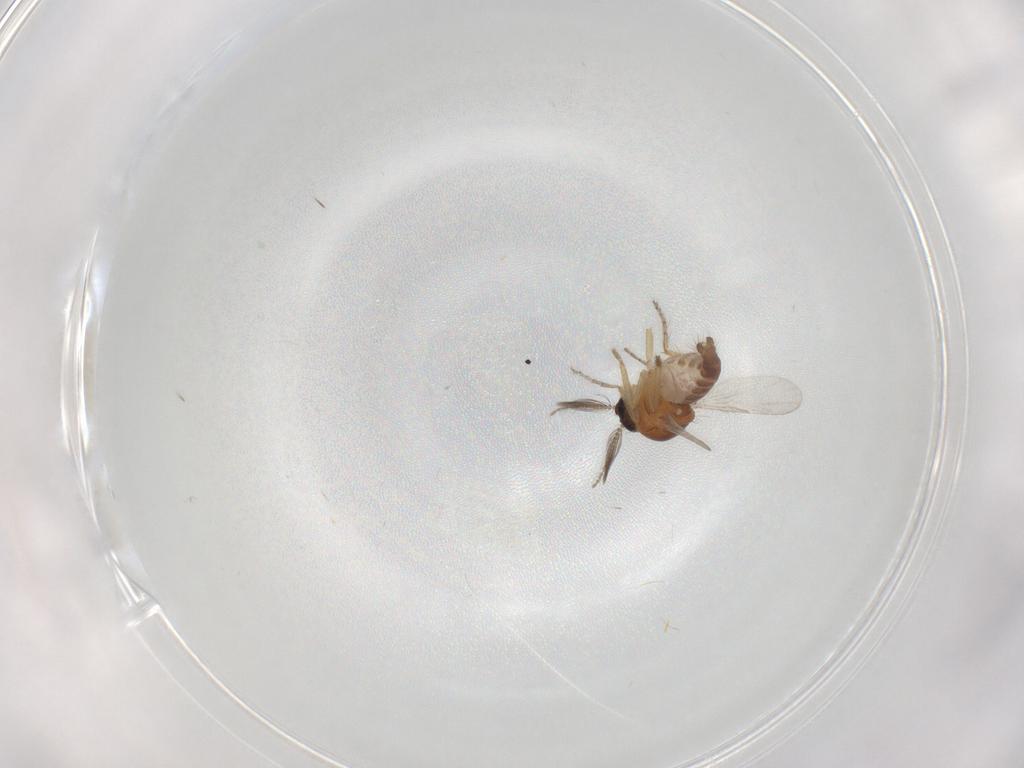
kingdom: Animalia
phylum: Arthropoda
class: Insecta
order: Diptera
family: Ceratopogonidae
